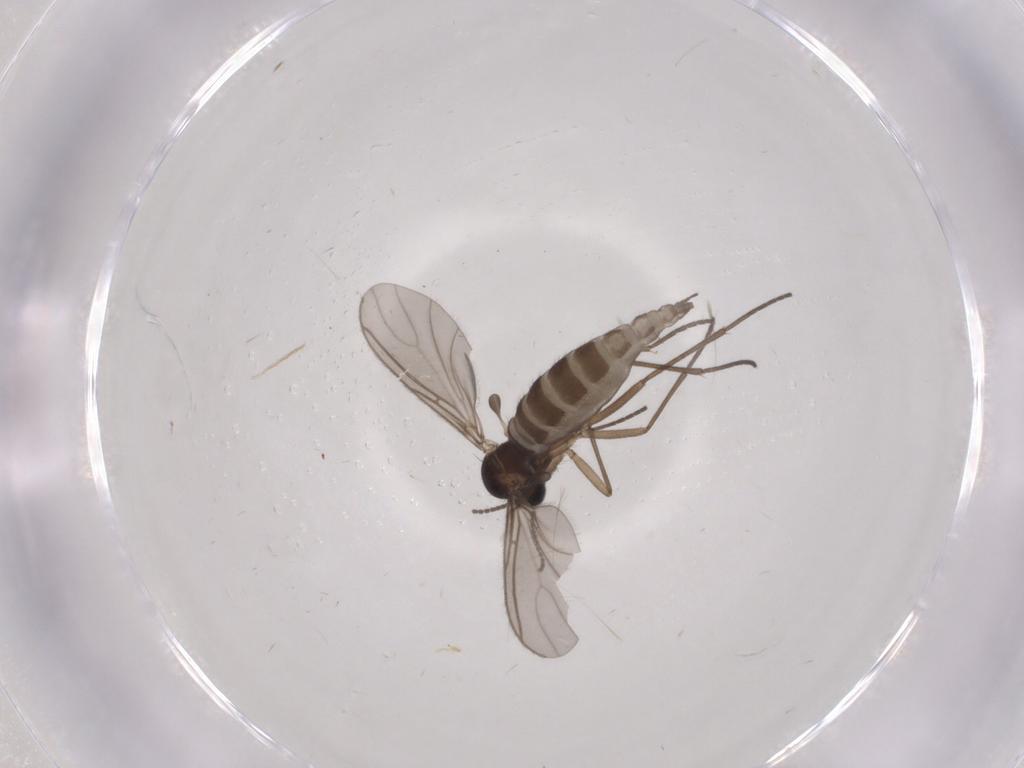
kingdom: Animalia
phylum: Arthropoda
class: Insecta
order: Diptera
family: Sciaridae
